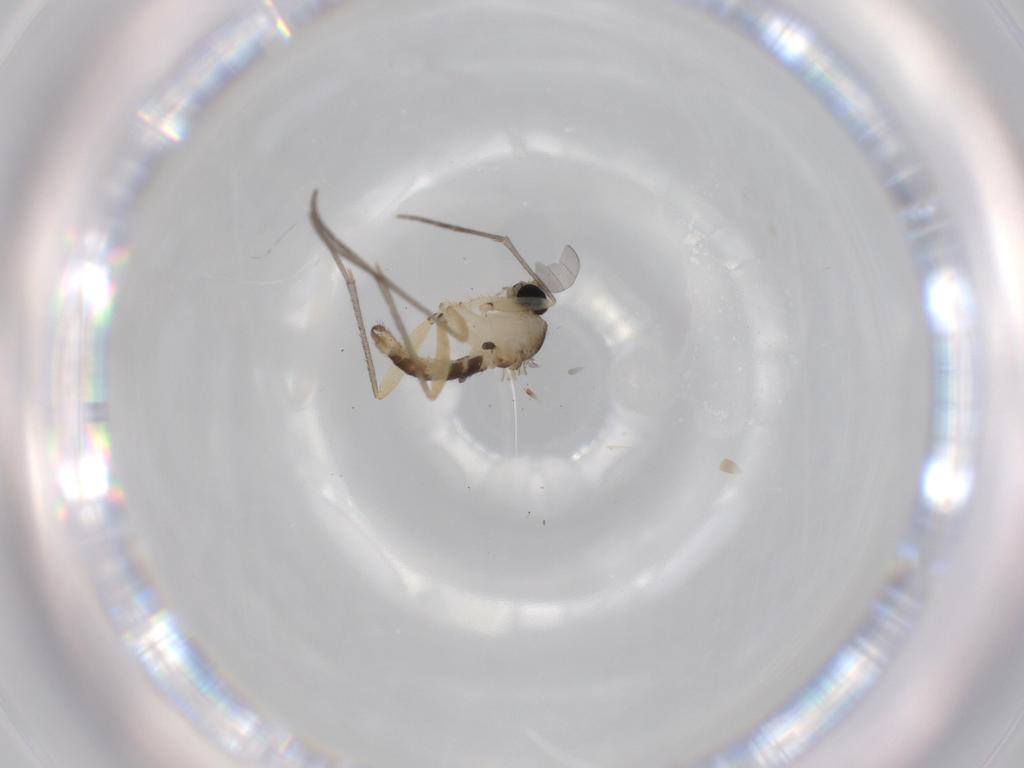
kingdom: Animalia
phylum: Arthropoda
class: Insecta
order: Diptera
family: Sciaridae
